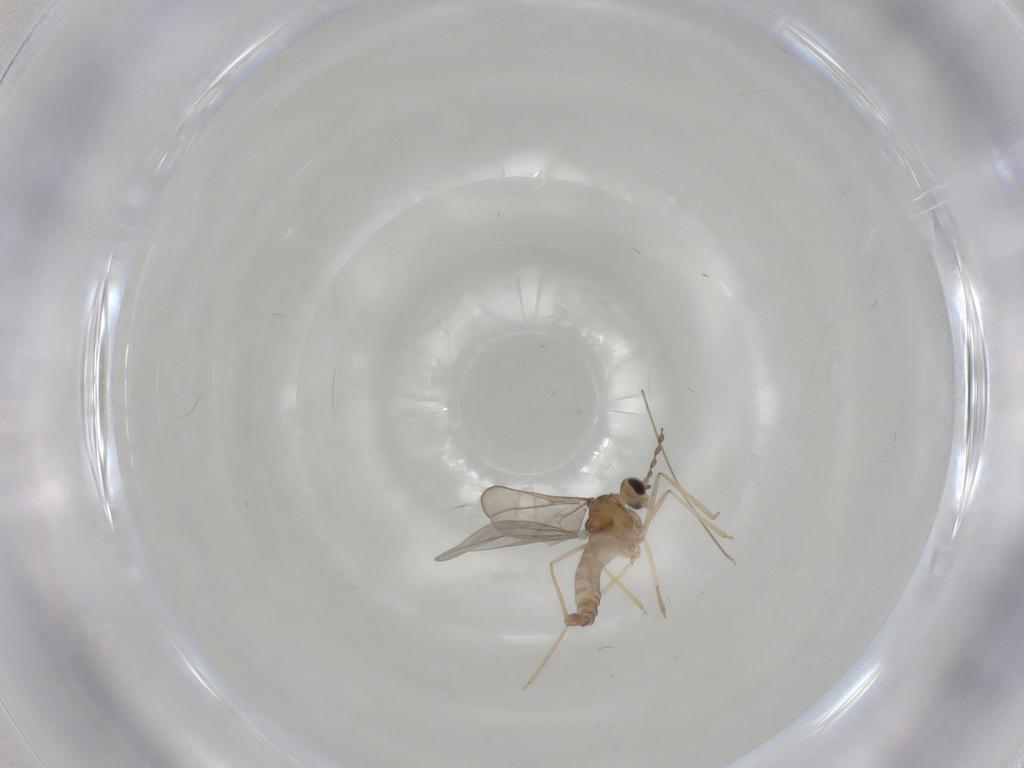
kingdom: Animalia
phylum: Arthropoda
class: Insecta
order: Diptera
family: Cecidomyiidae
